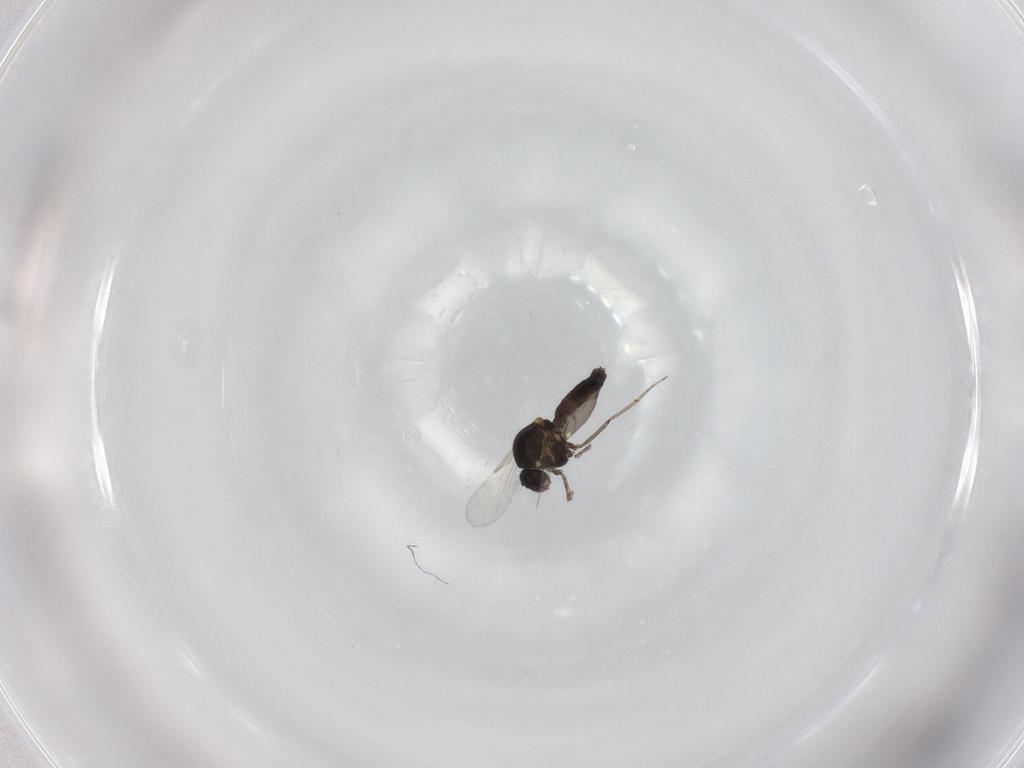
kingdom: Animalia
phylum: Arthropoda
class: Insecta
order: Diptera
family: Ceratopogonidae
